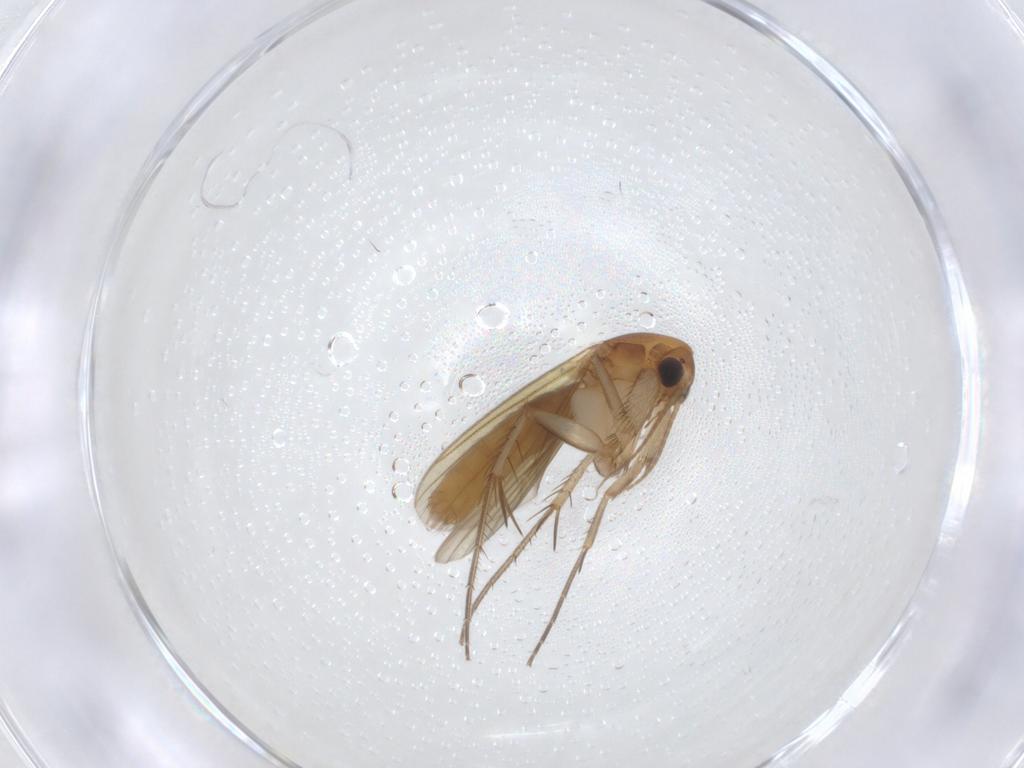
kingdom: Animalia
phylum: Arthropoda
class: Insecta
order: Diptera
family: Mycetophilidae
